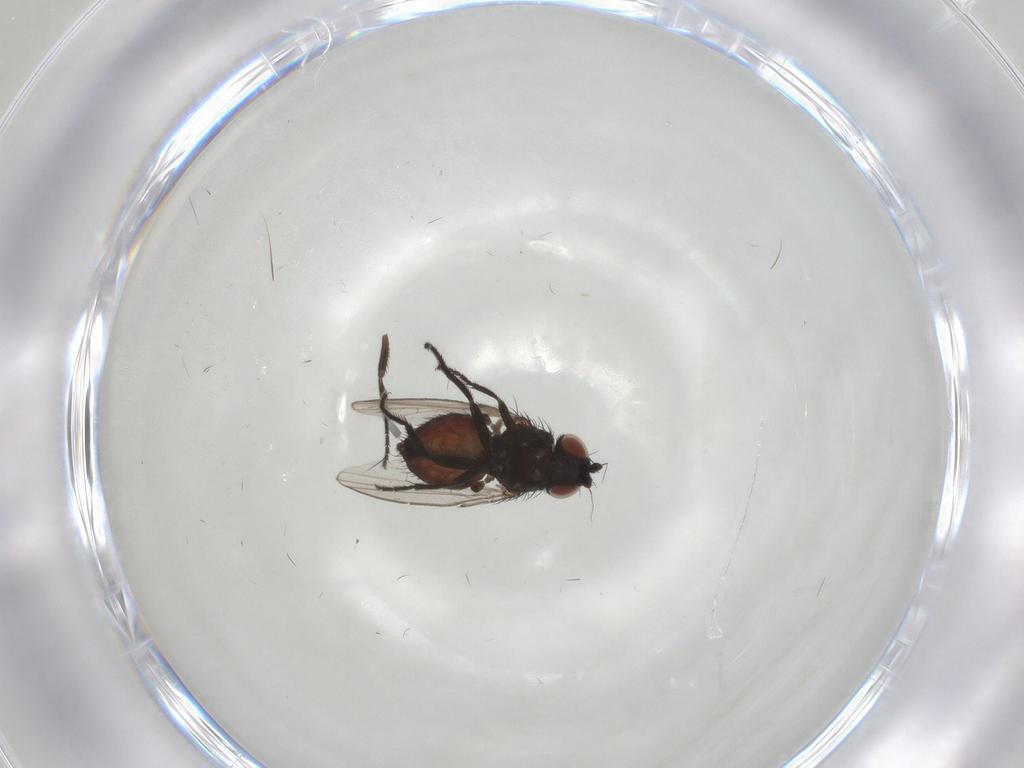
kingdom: Animalia
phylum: Arthropoda
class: Insecta
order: Diptera
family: Milichiidae
